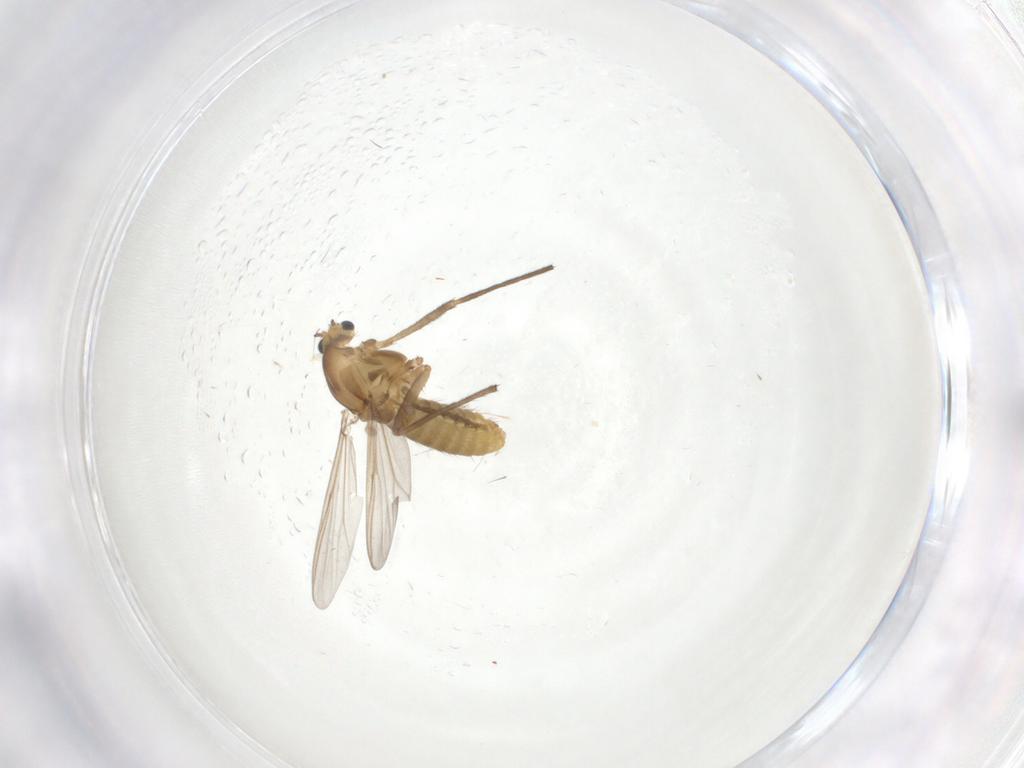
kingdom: Animalia
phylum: Arthropoda
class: Insecta
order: Diptera
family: Chironomidae
